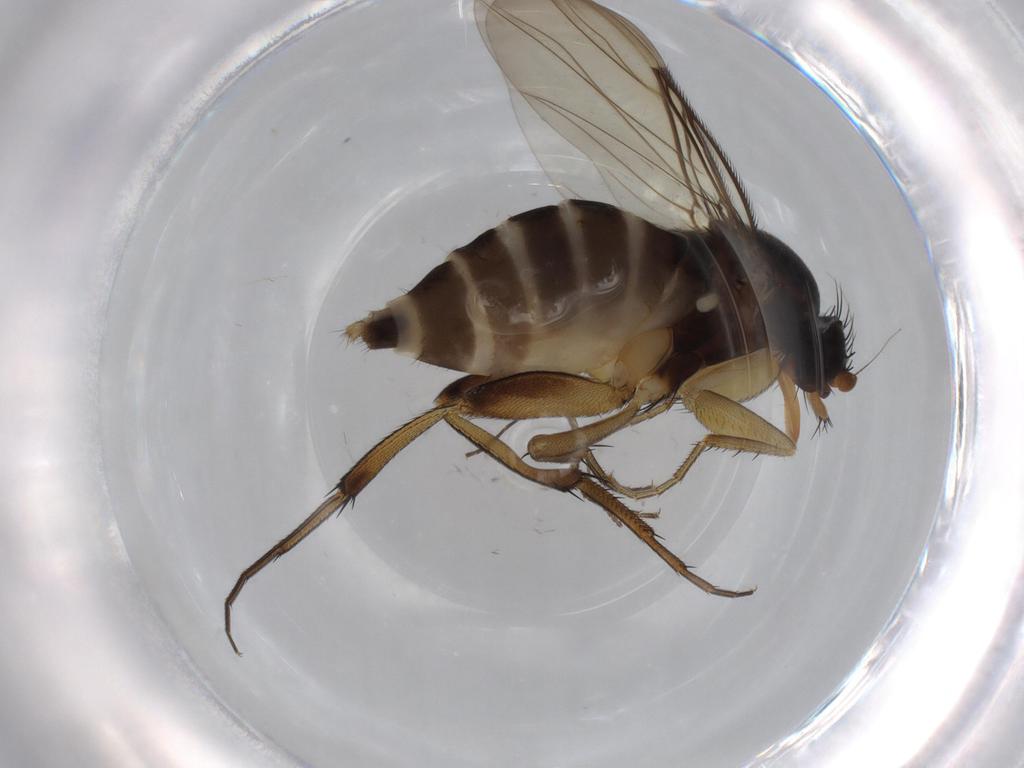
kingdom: Animalia
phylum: Arthropoda
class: Insecta
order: Diptera
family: Phoridae
